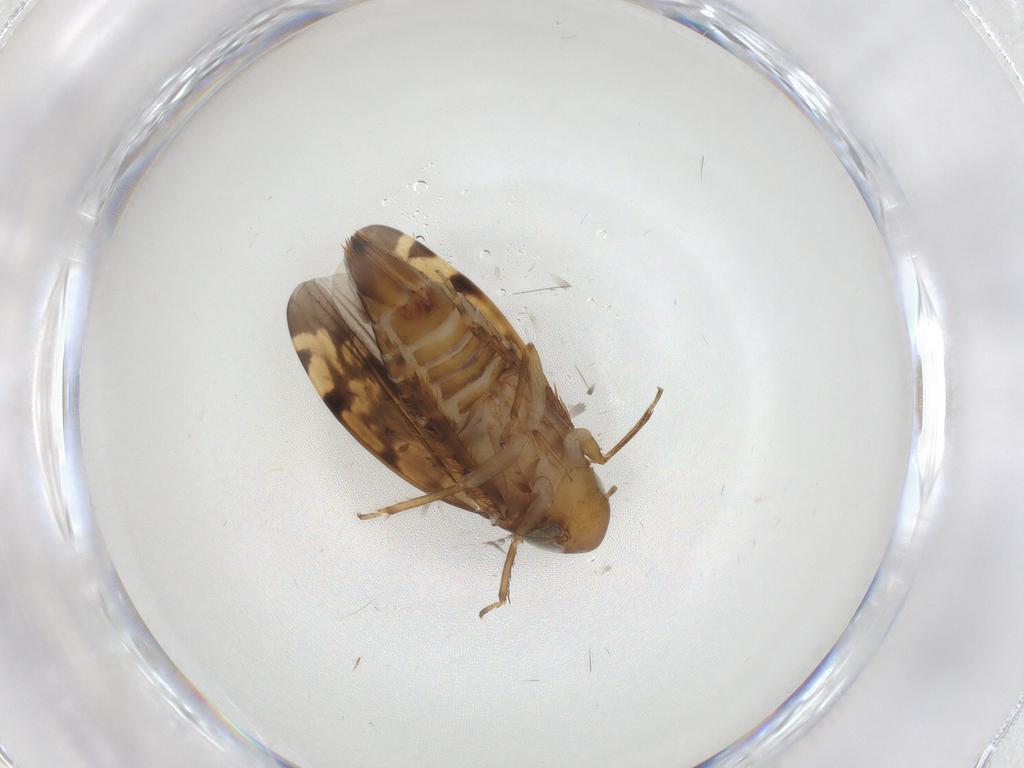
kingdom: Animalia
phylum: Arthropoda
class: Insecta
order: Hemiptera
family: Cicadellidae
